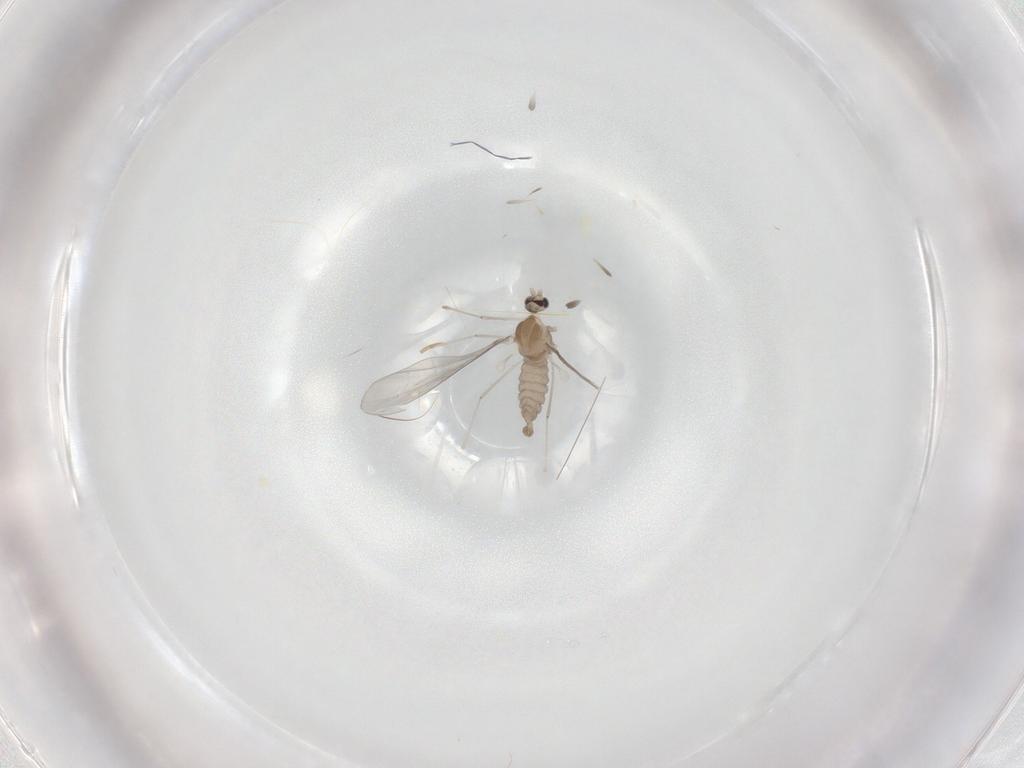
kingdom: Animalia
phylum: Arthropoda
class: Insecta
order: Diptera
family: Cecidomyiidae
